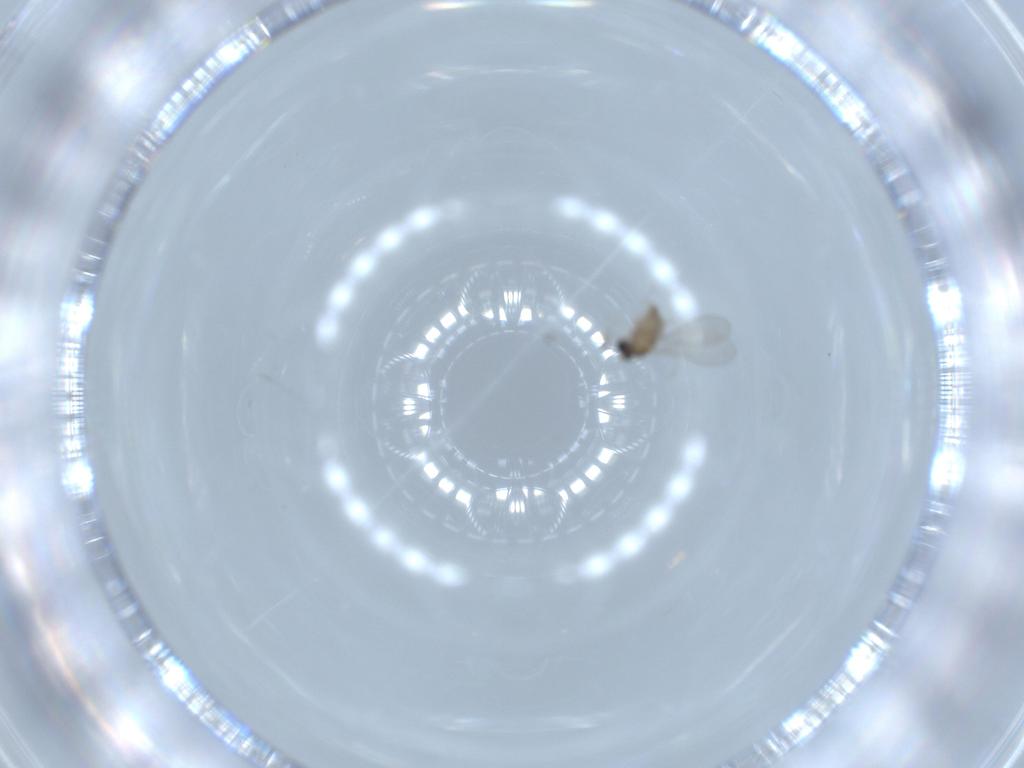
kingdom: Animalia
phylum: Arthropoda
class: Insecta
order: Diptera
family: Cecidomyiidae
